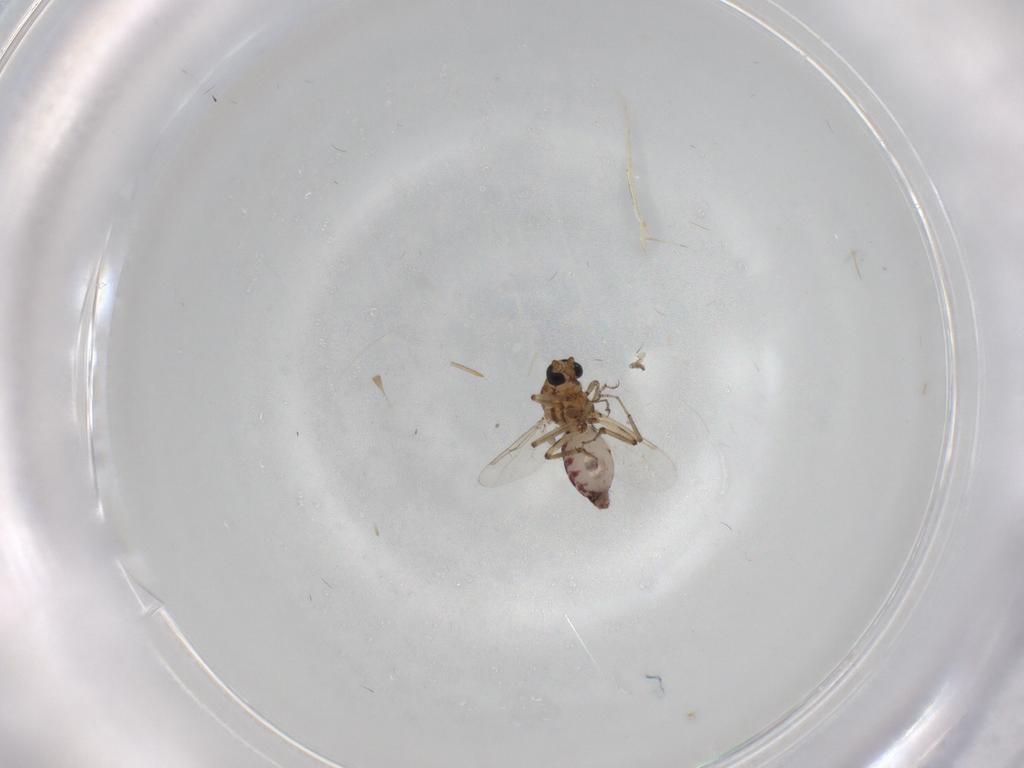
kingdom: Animalia
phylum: Arthropoda
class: Insecta
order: Diptera
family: Ceratopogonidae
